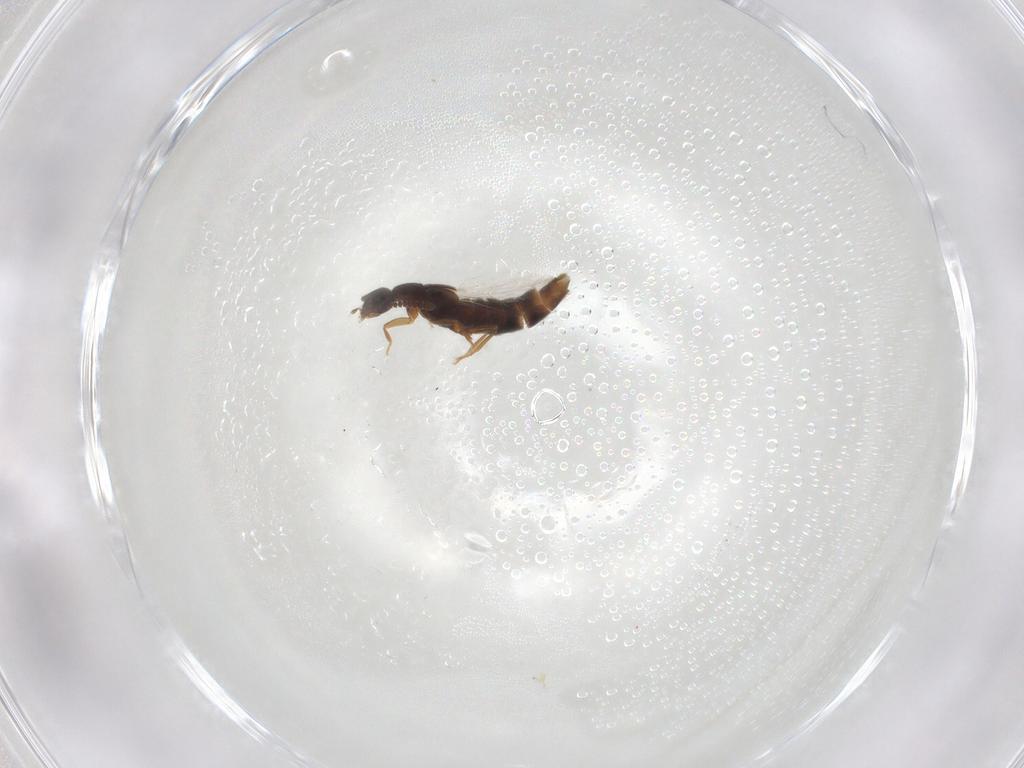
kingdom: Animalia
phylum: Arthropoda
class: Insecta
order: Coleoptera
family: Staphylinidae
